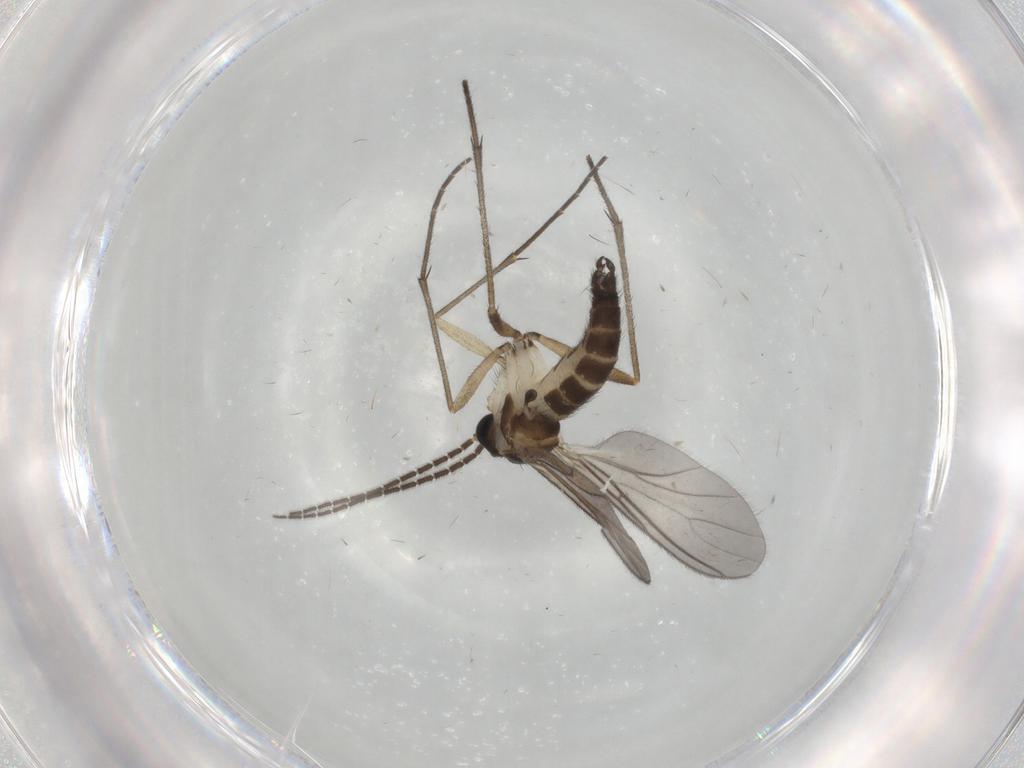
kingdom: Animalia
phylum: Arthropoda
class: Insecta
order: Diptera
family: Sciaridae
